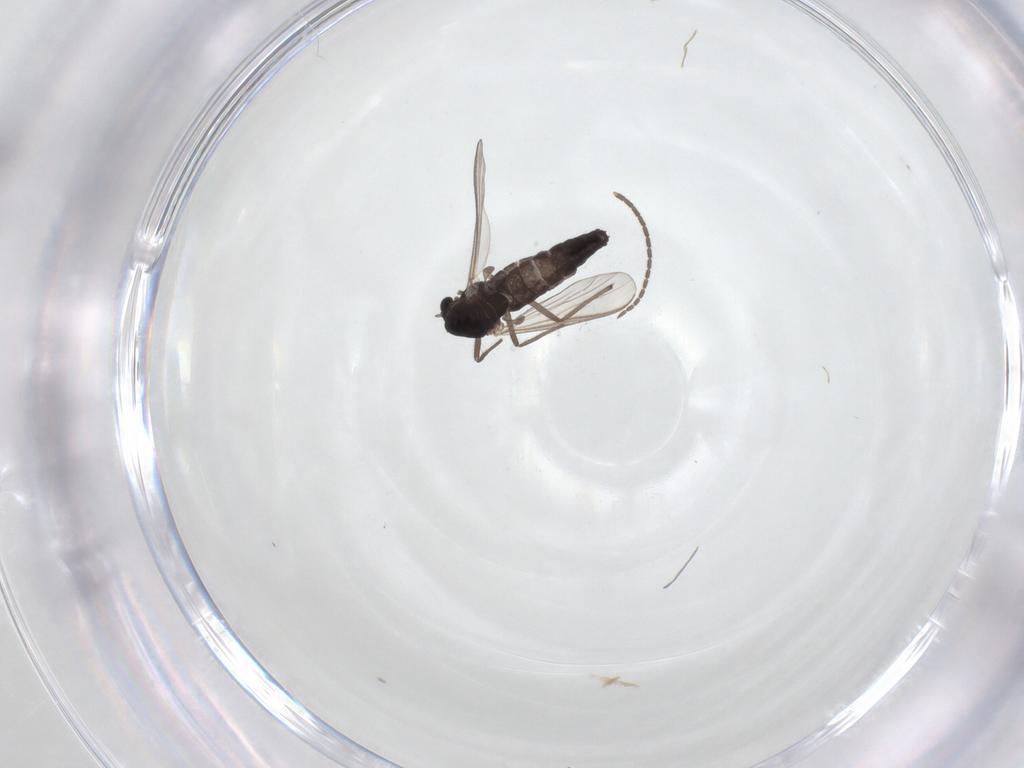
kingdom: Animalia
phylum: Arthropoda
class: Insecta
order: Diptera
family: Sciaridae
